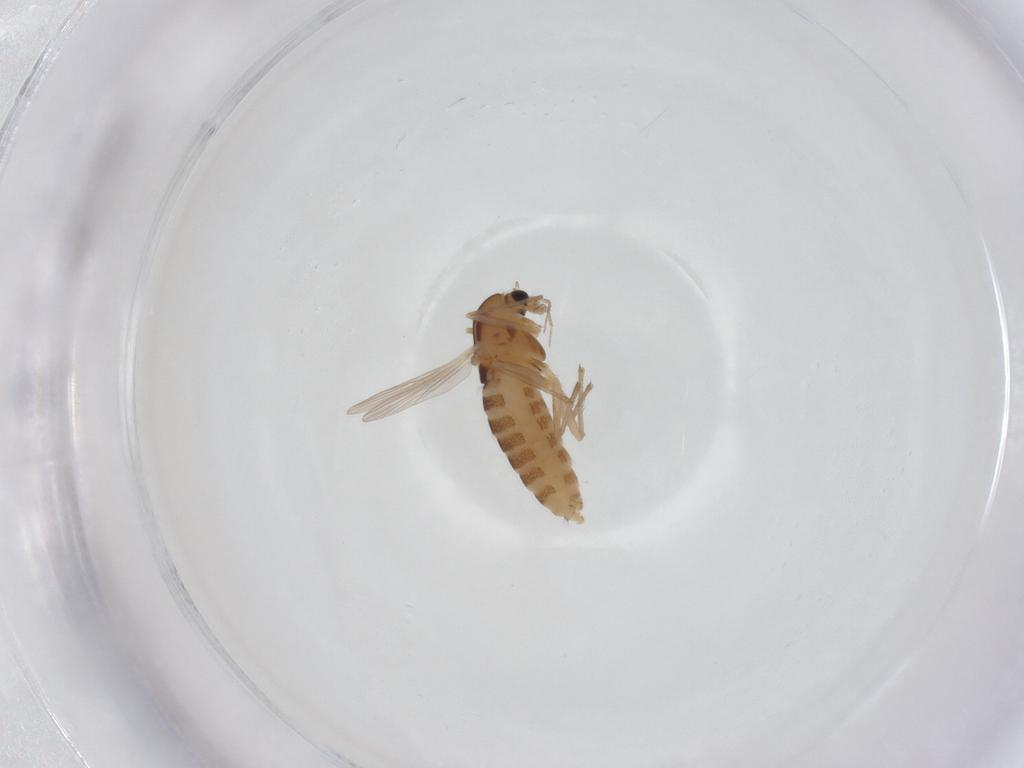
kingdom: Animalia
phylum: Arthropoda
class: Insecta
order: Diptera
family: Chironomidae
